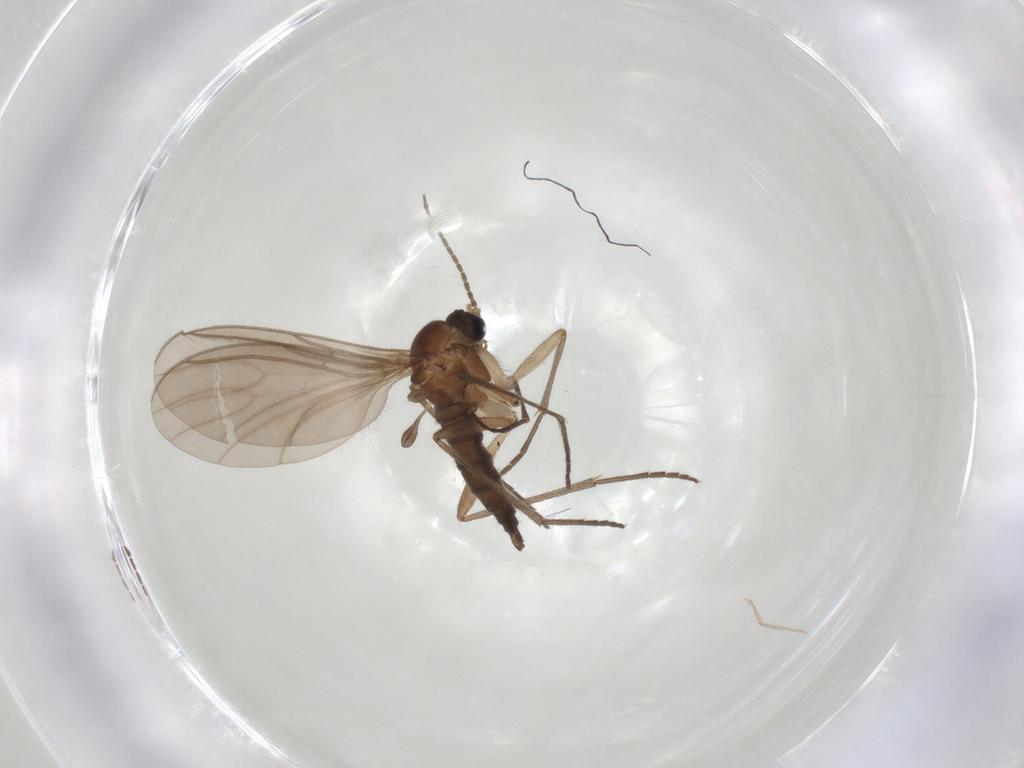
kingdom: Animalia
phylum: Arthropoda
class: Insecta
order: Diptera
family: Sciaridae
